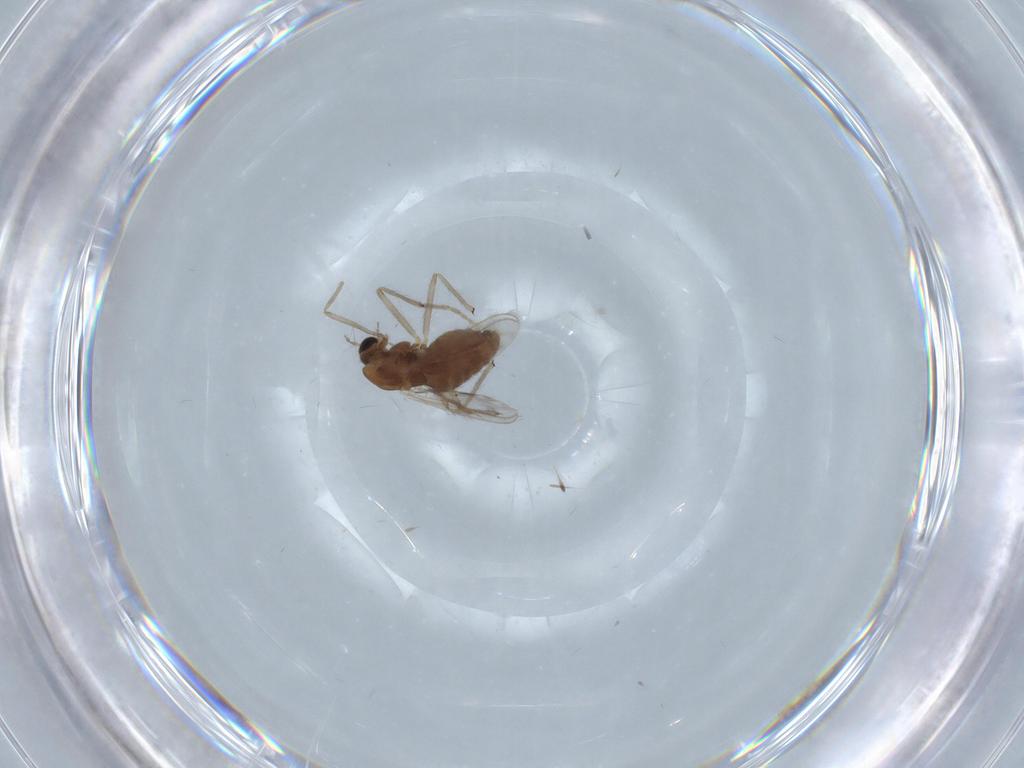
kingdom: Animalia
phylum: Arthropoda
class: Insecta
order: Diptera
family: Chironomidae
